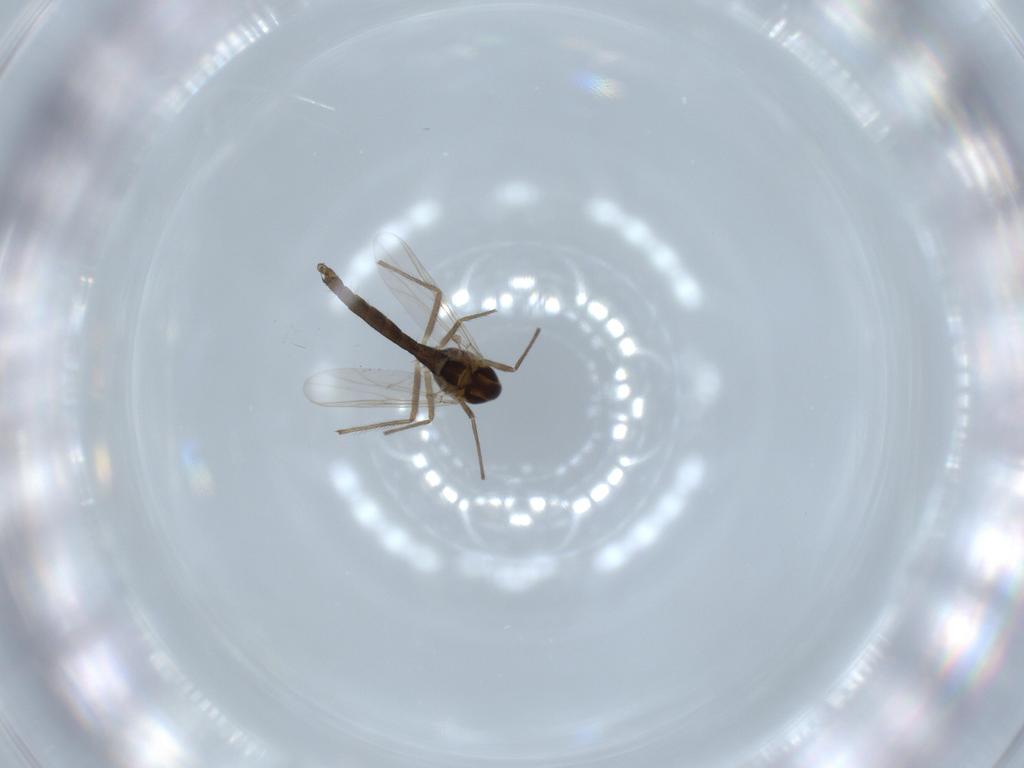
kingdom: Animalia
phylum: Arthropoda
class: Insecta
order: Diptera
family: Chironomidae
